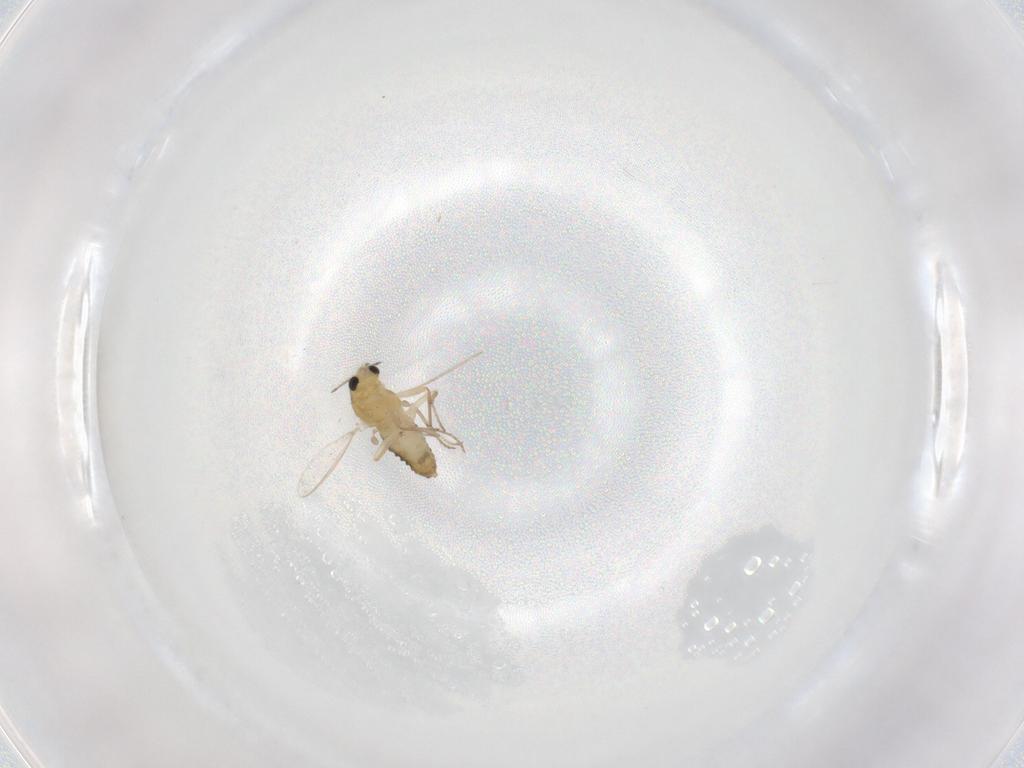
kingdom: Animalia
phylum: Arthropoda
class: Insecta
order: Diptera
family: Chironomidae
